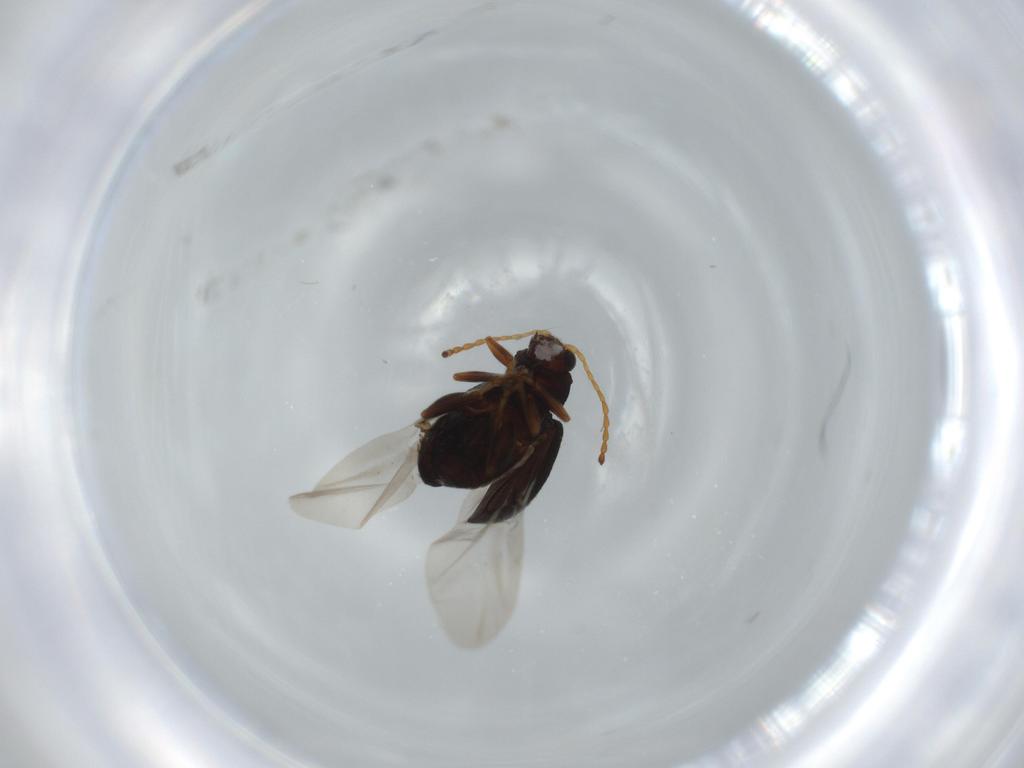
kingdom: Animalia
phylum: Arthropoda
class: Insecta
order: Coleoptera
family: Chrysomelidae
